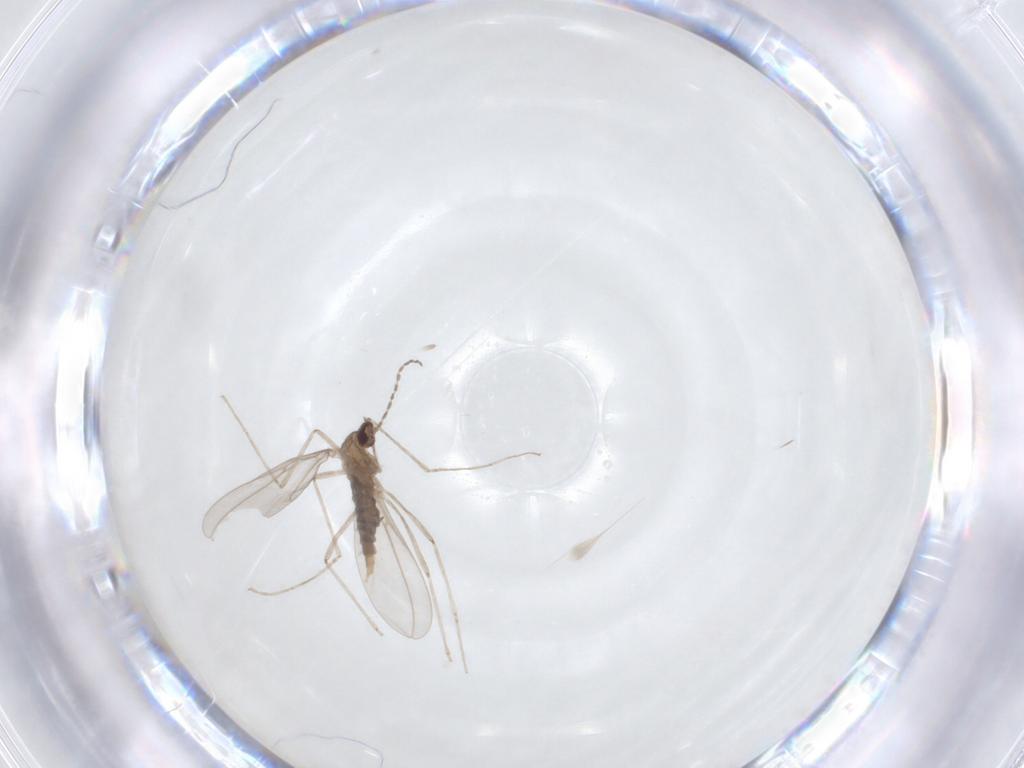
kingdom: Animalia
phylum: Arthropoda
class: Insecta
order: Diptera
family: Cecidomyiidae
